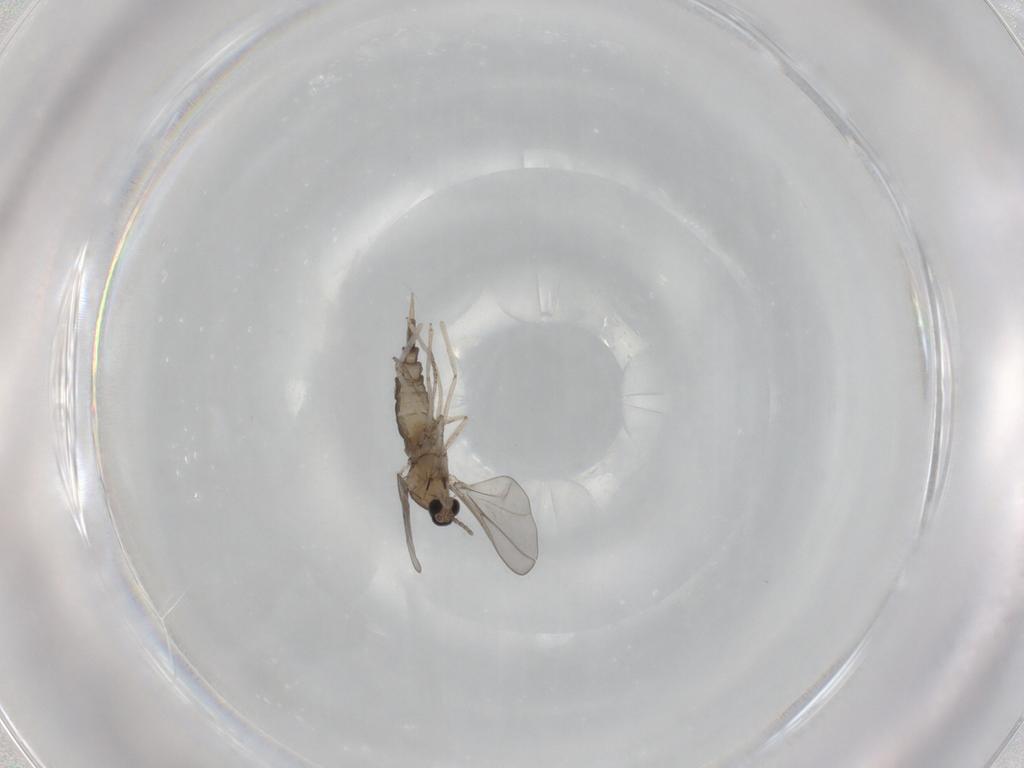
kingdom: Animalia
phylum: Arthropoda
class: Insecta
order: Diptera
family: Cecidomyiidae
